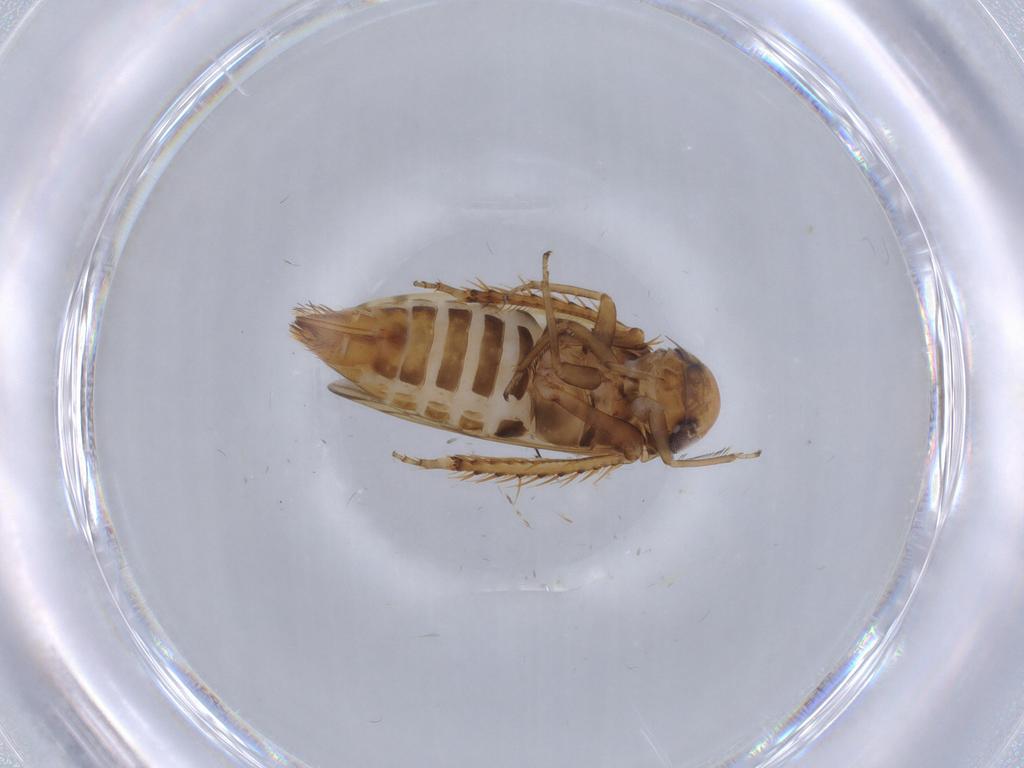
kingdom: Animalia
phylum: Arthropoda
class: Insecta
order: Hemiptera
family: Cicadellidae
